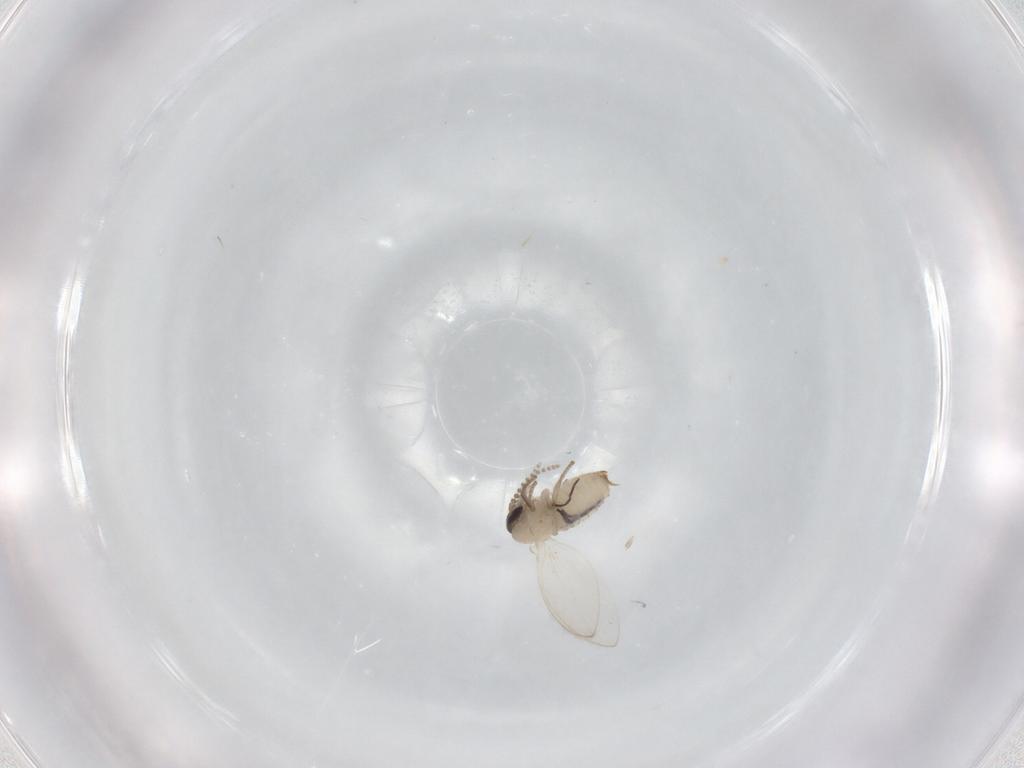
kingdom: Animalia
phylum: Arthropoda
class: Insecta
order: Diptera
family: Psychodidae
